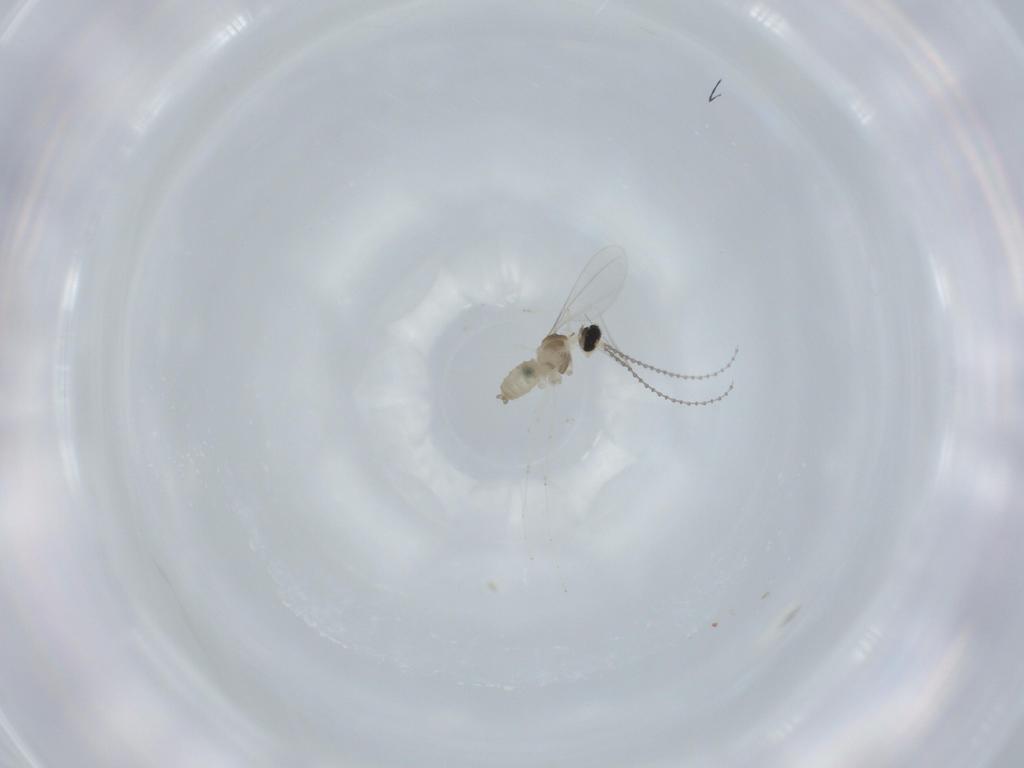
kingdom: Animalia
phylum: Arthropoda
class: Insecta
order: Diptera
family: Cecidomyiidae
